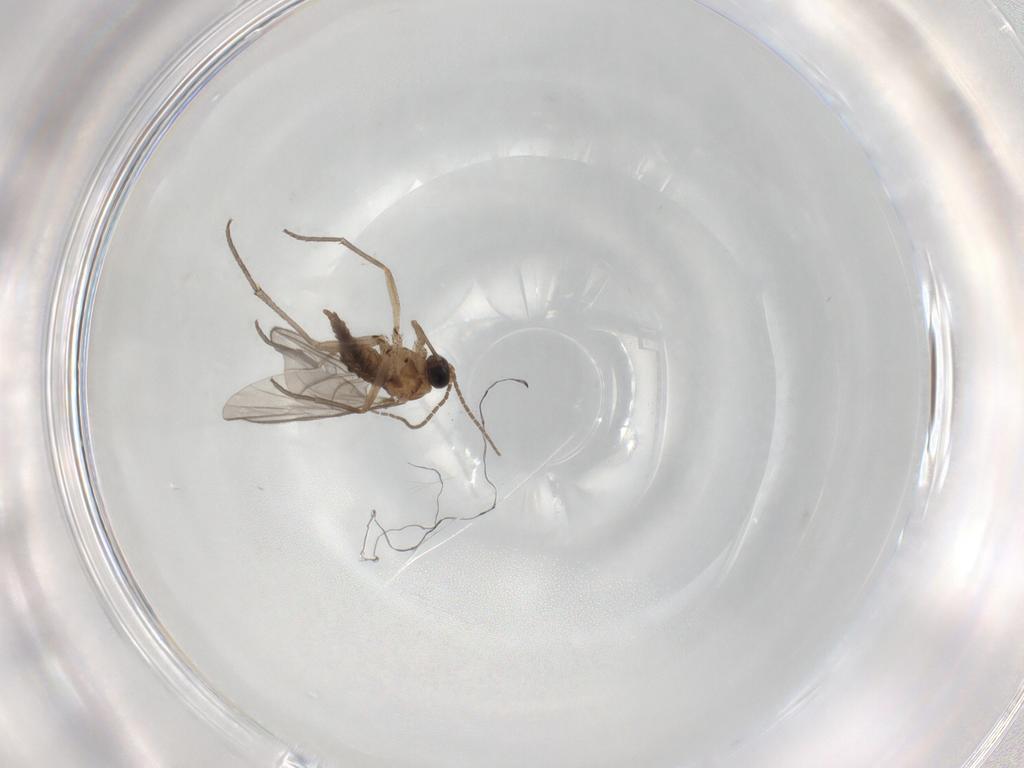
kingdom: Animalia
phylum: Arthropoda
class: Insecta
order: Diptera
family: Sciaridae
